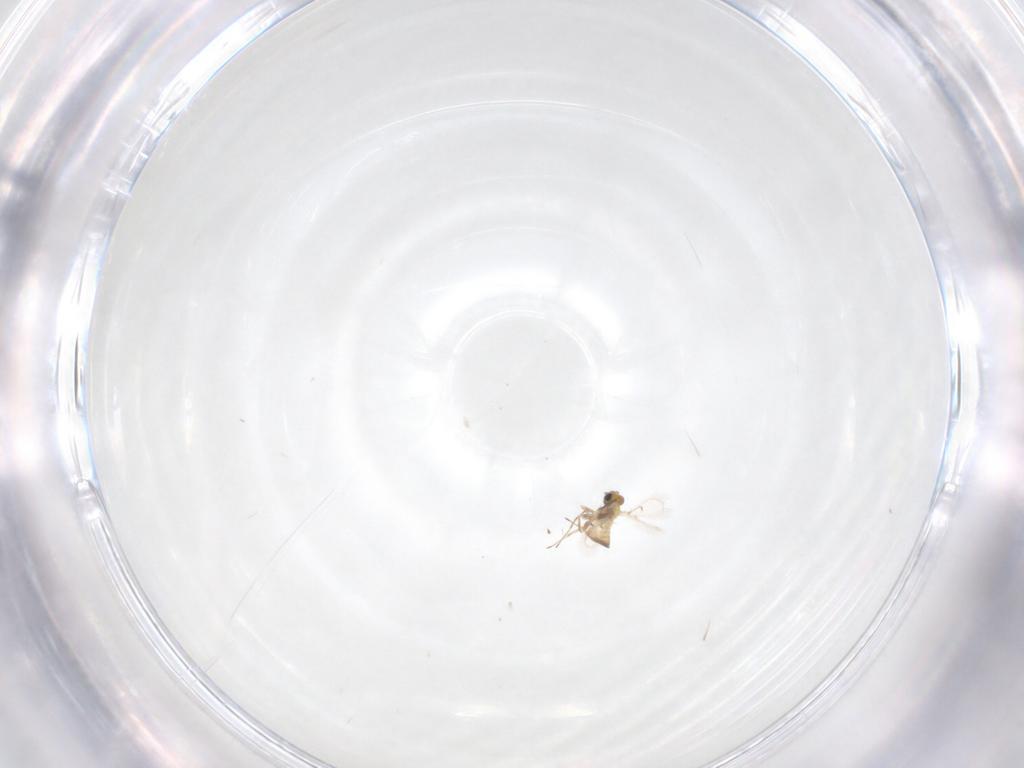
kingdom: Animalia
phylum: Arthropoda
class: Insecta
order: Hymenoptera
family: Trichogrammatidae
